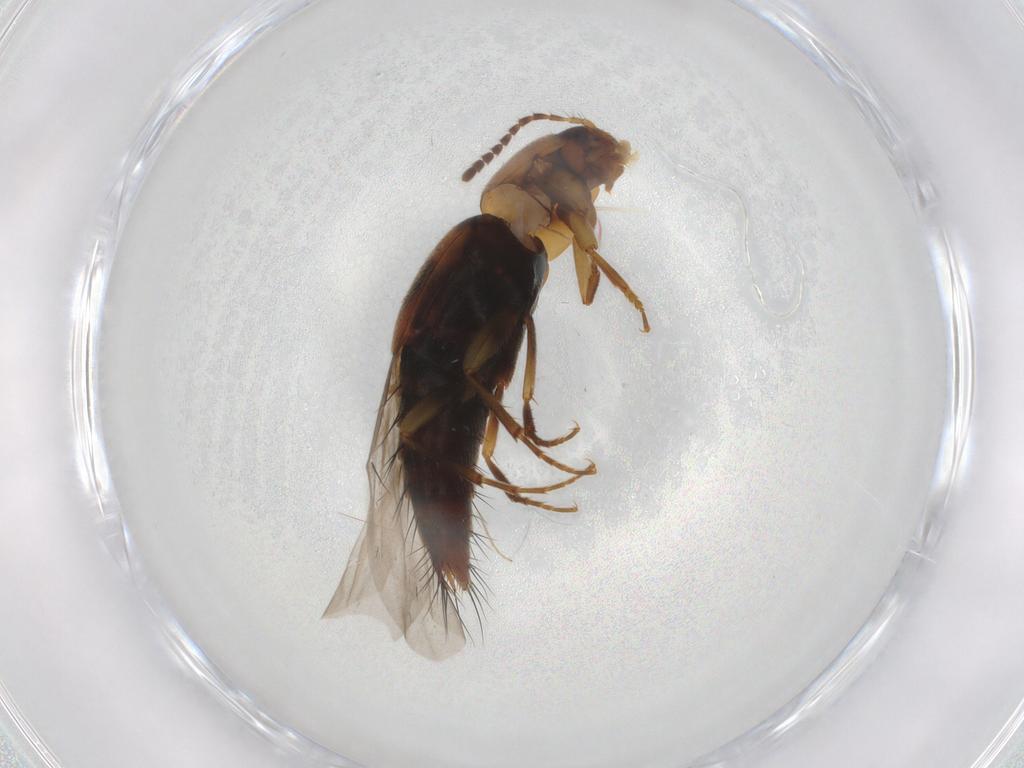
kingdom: Animalia
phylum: Arthropoda
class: Insecta
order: Coleoptera
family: Staphylinidae
